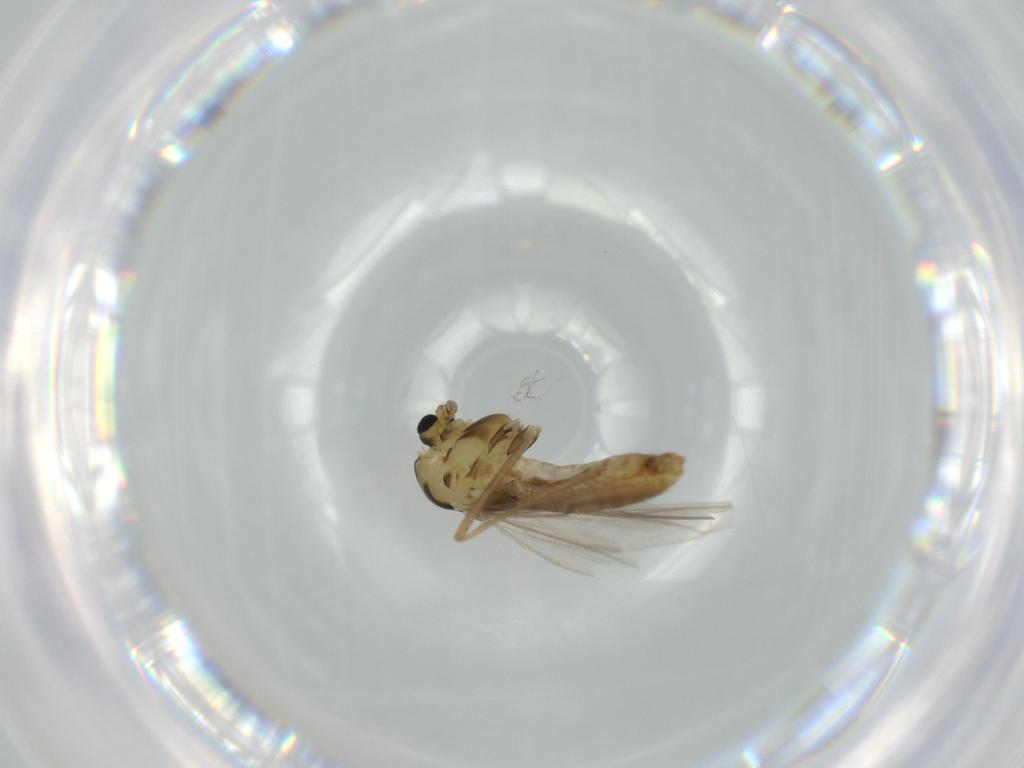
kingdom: Animalia
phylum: Arthropoda
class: Insecta
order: Diptera
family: Chironomidae
